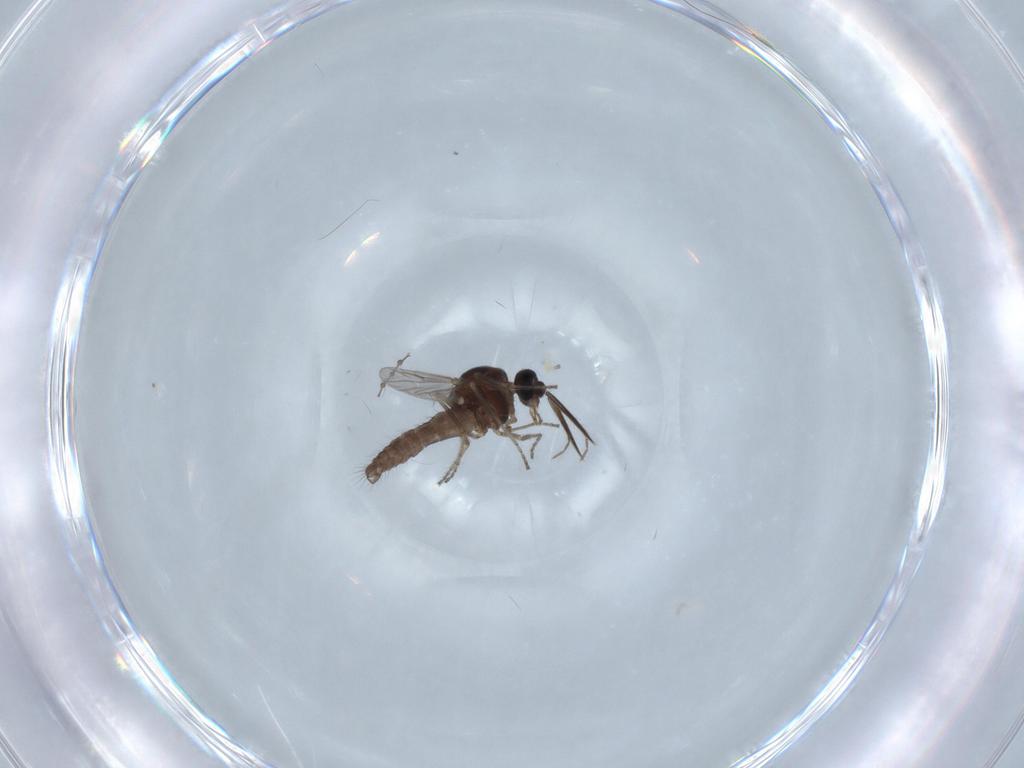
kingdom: Animalia
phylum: Arthropoda
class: Insecta
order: Diptera
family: Ceratopogonidae
